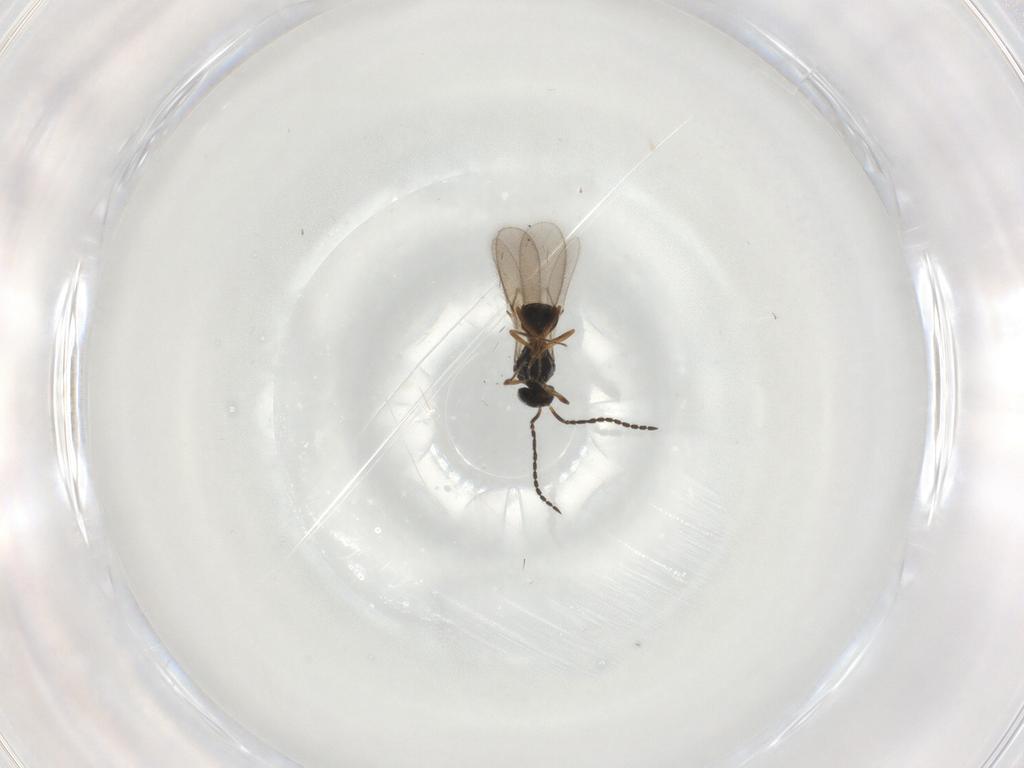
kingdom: Animalia
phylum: Arthropoda
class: Insecta
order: Hymenoptera
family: Scelionidae
